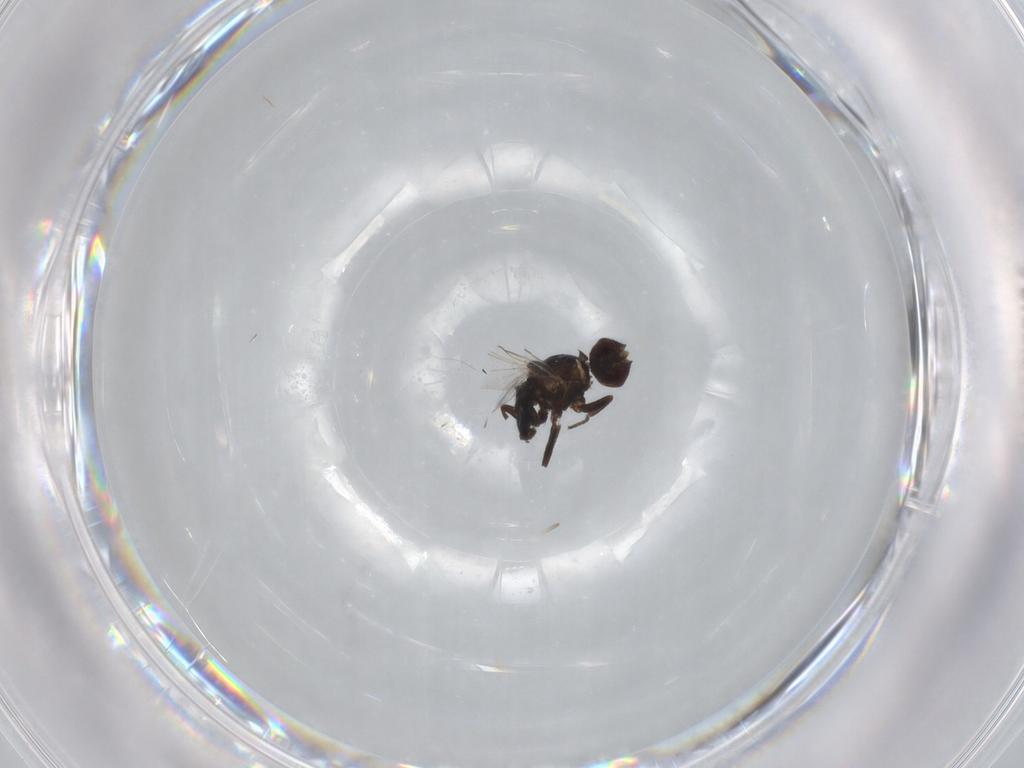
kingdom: Animalia
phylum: Arthropoda
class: Insecta
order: Diptera
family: Agromyzidae
